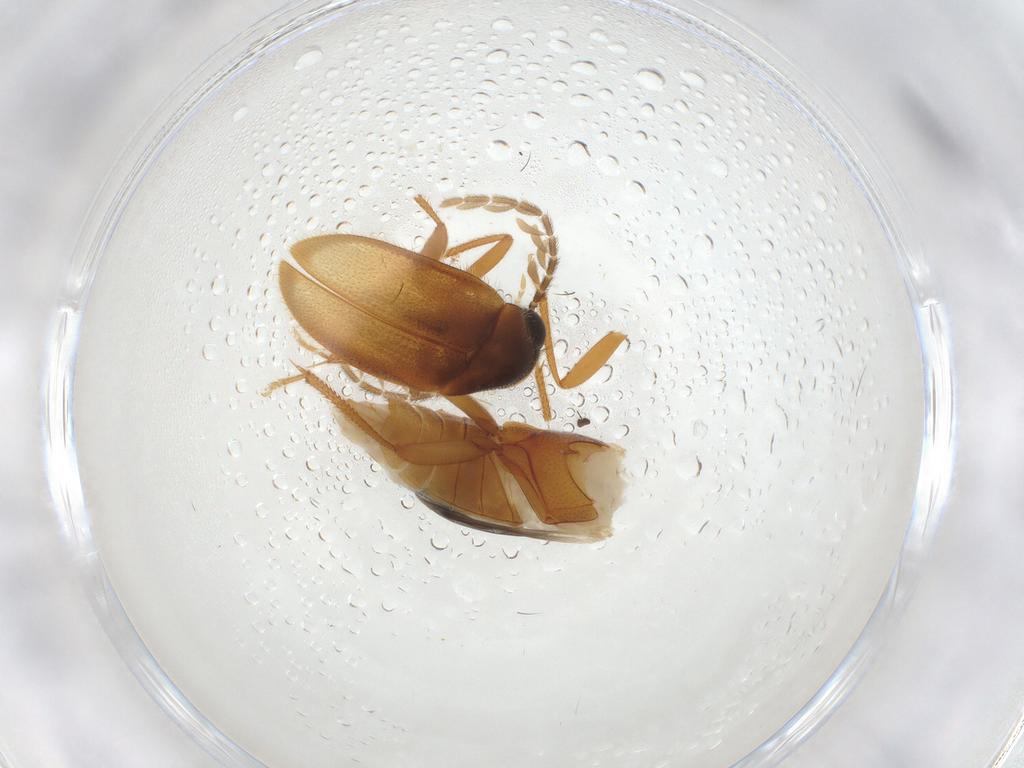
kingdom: Animalia
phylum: Arthropoda
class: Insecta
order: Coleoptera
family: Ptilodactylidae
